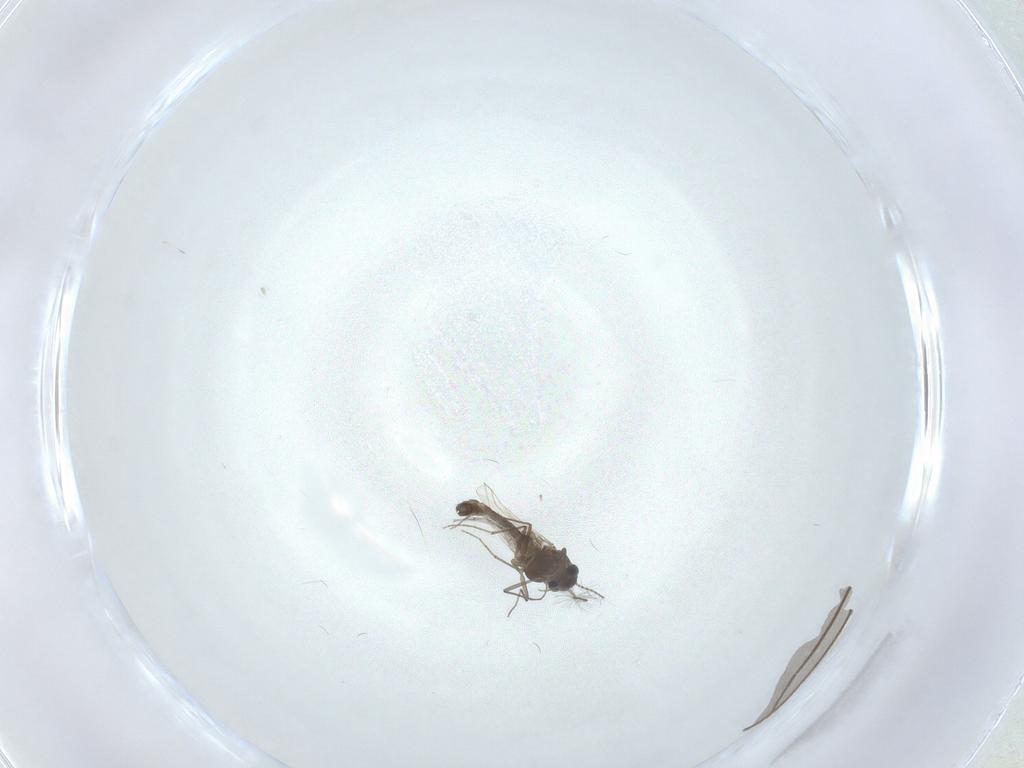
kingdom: Animalia
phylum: Arthropoda
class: Insecta
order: Diptera
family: Sciaridae
